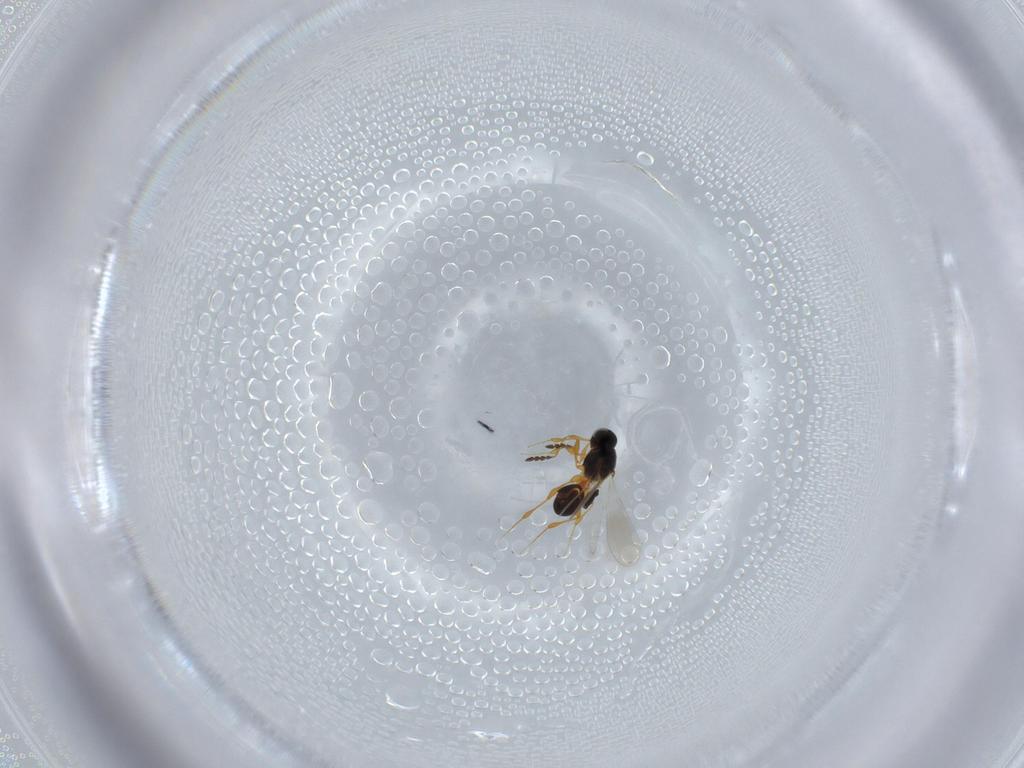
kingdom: Animalia
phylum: Arthropoda
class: Insecta
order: Hymenoptera
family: Platygastridae
